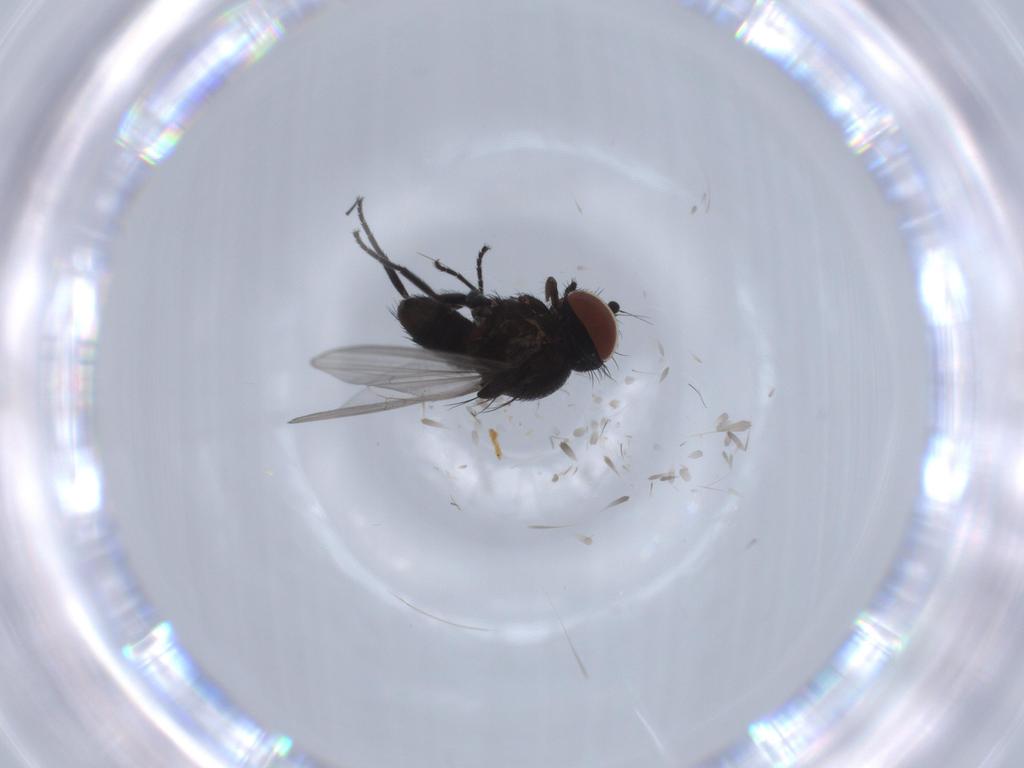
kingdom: Animalia
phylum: Arthropoda
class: Insecta
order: Diptera
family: Milichiidae
